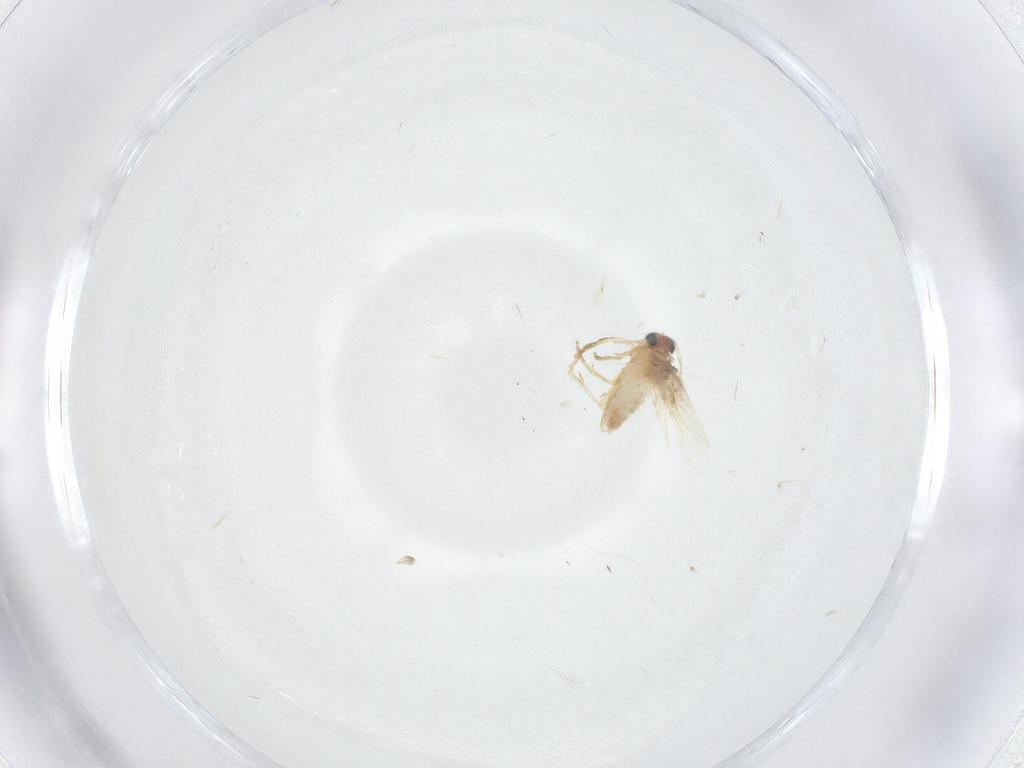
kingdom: Animalia
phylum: Arthropoda
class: Insecta
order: Lepidoptera
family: Nepticulidae
